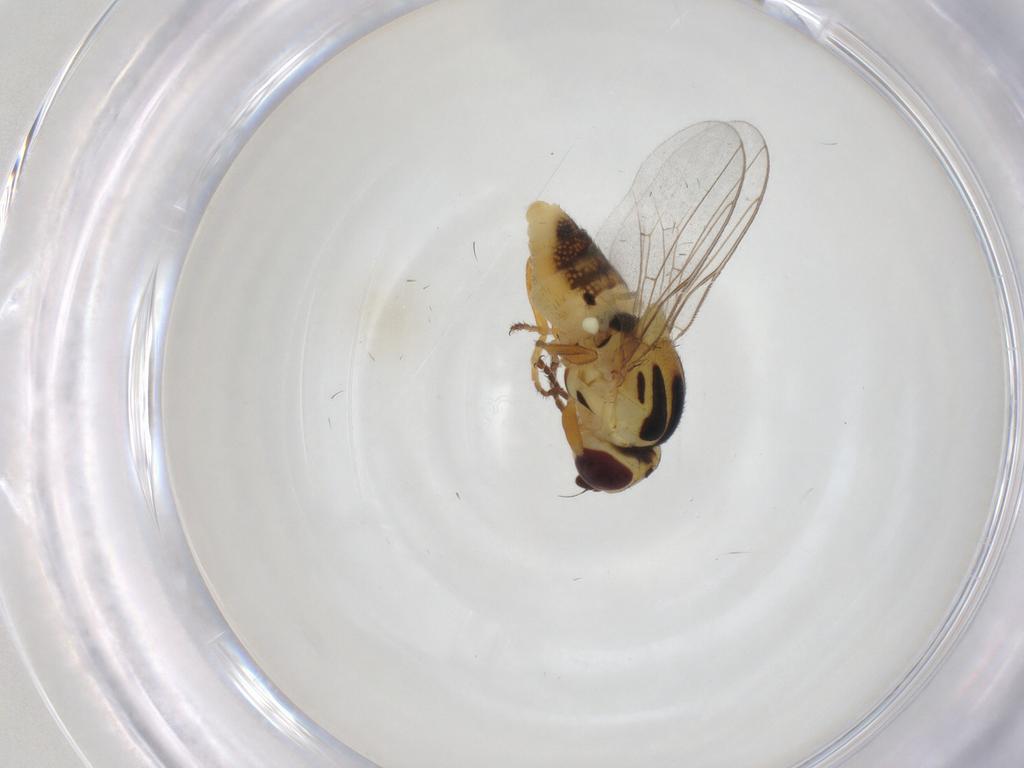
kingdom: Animalia
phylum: Arthropoda
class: Insecta
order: Diptera
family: Chloropidae
